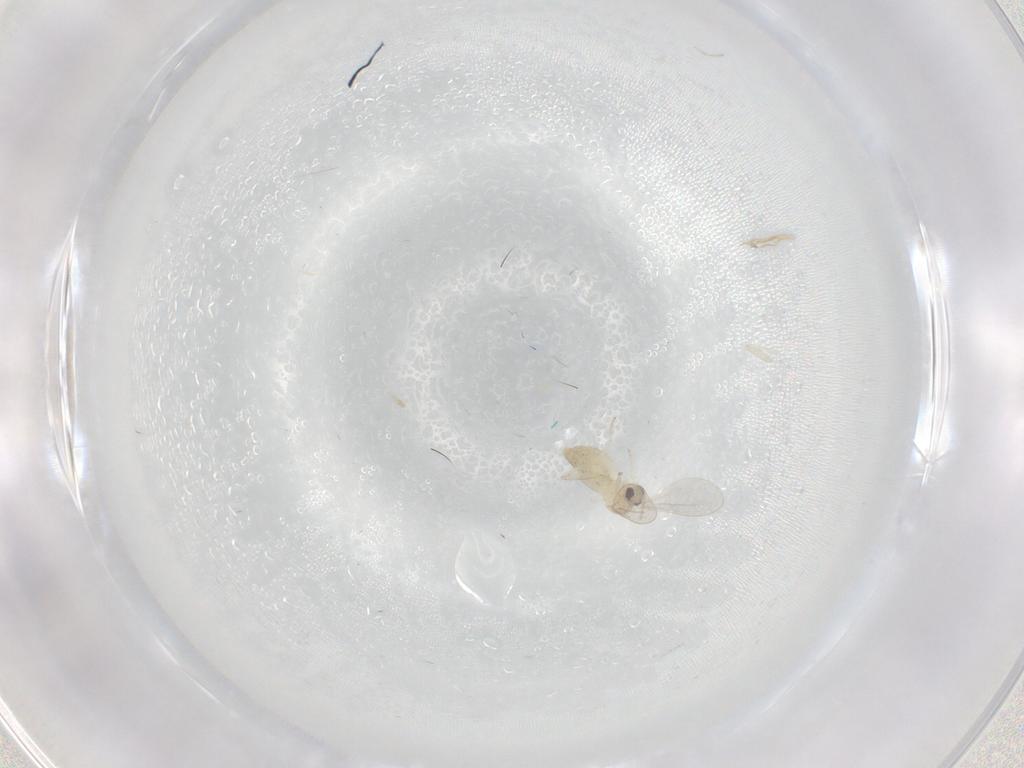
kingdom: Animalia
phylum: Arthropoda
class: Insecta
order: Diptera
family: Cecidomyiidae
